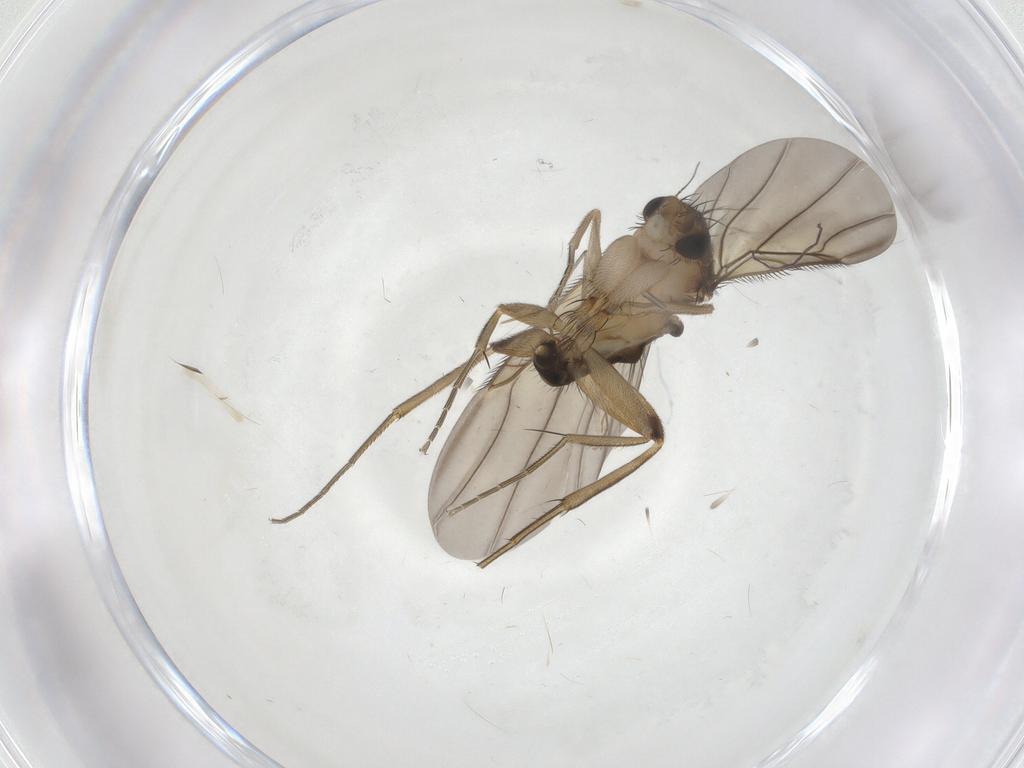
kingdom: Animalia
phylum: Arthropoda
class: Insecta
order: Diptera
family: Phoridae
